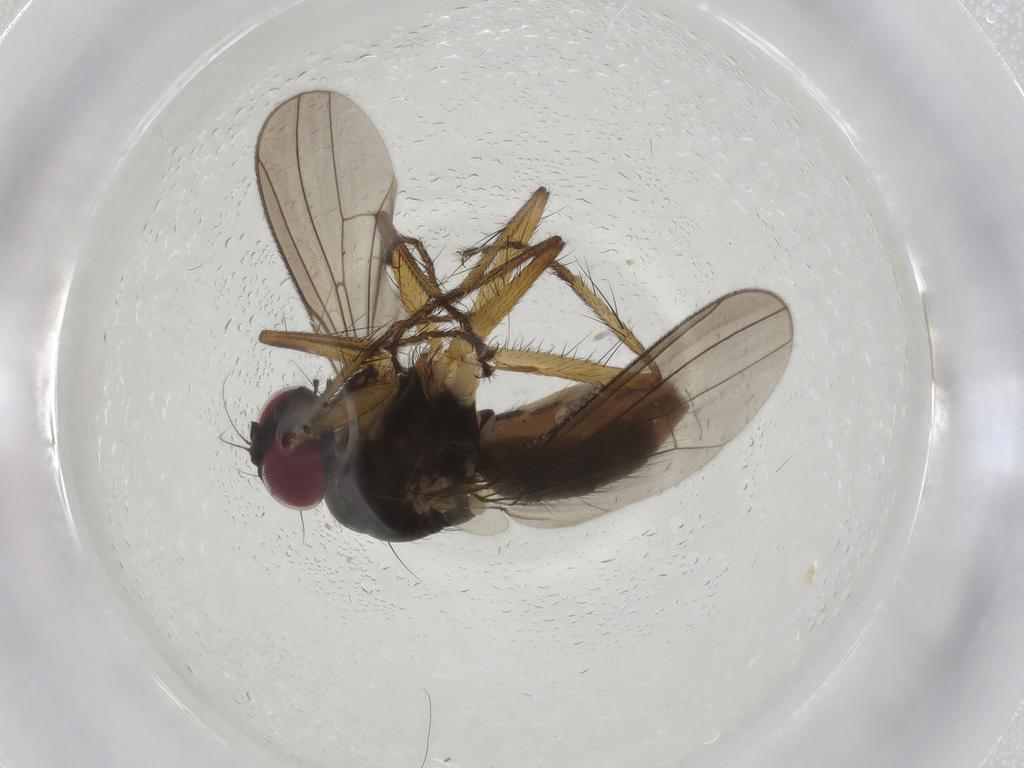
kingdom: Animalia
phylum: Arthropoda
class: Insecta
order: Diptera
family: Anthomyiidae
